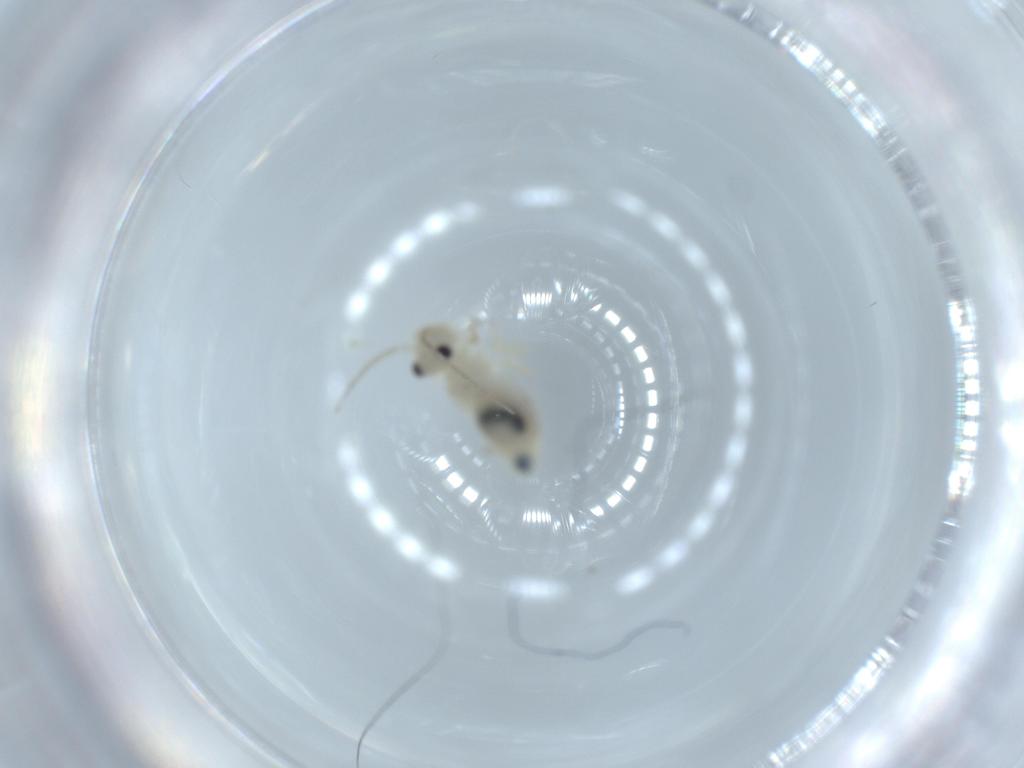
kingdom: Animalia
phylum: Arthropoda
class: Insecta
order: Psocodea
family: Caeciliusidae
